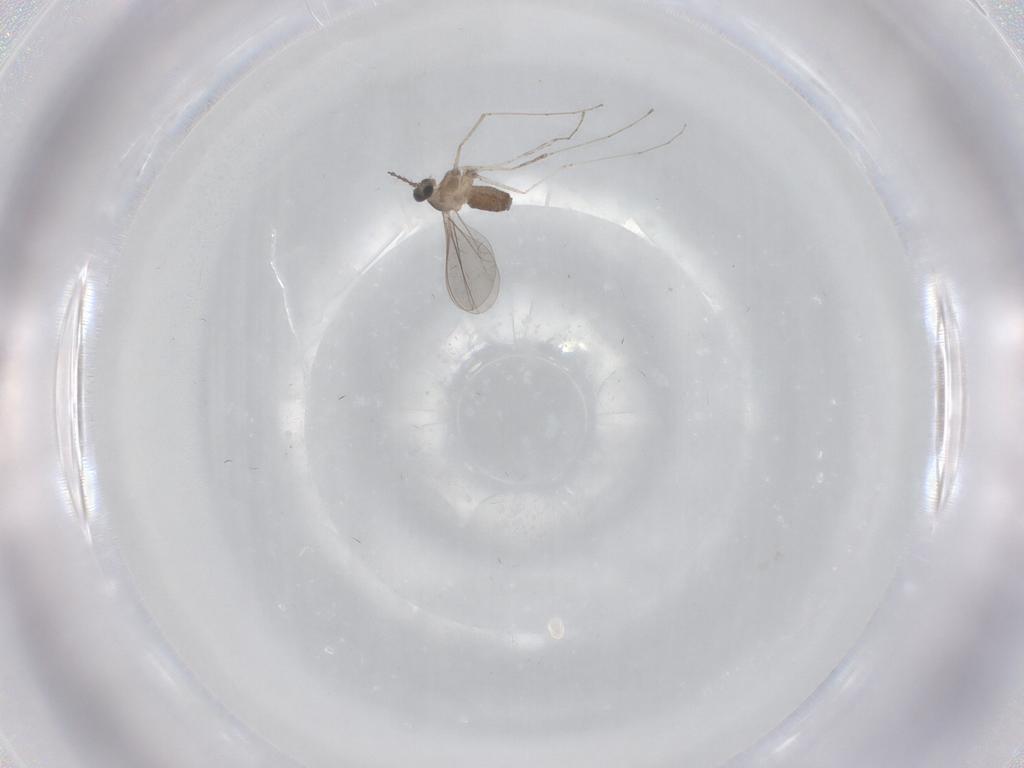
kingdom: Animalia
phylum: Arthropoda
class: Insecta
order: Diptera
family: Cecidomyiidae
